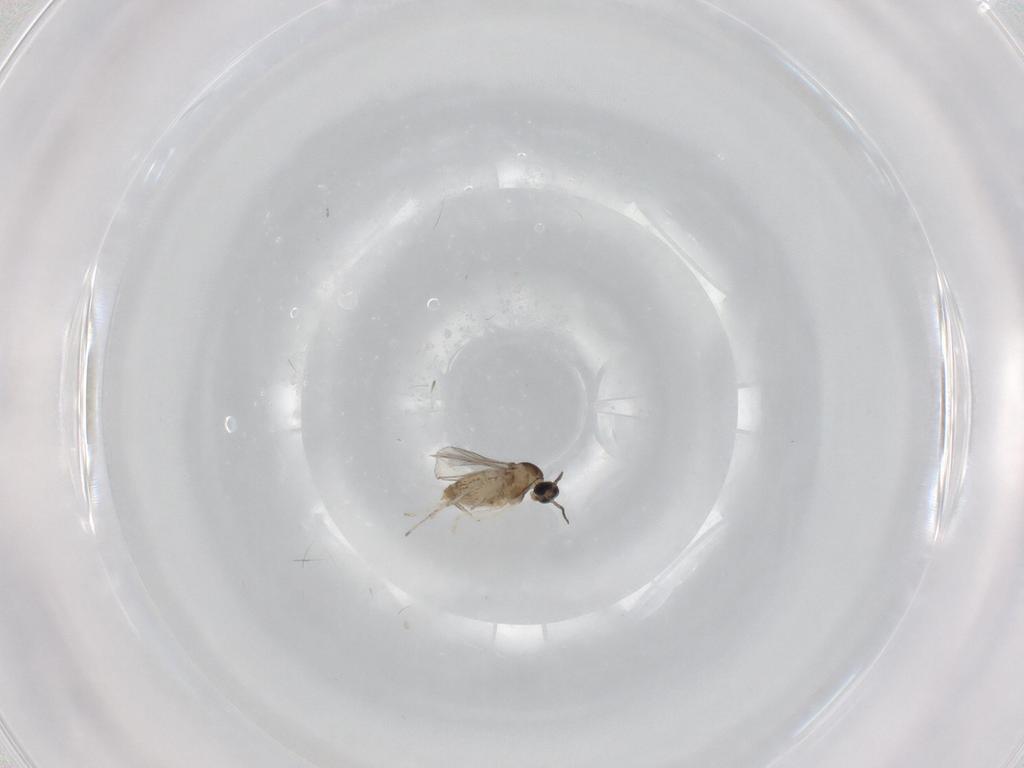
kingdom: Animalia
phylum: Arthropoda
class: Insecta
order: Diptera
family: Cecidomyiidae
